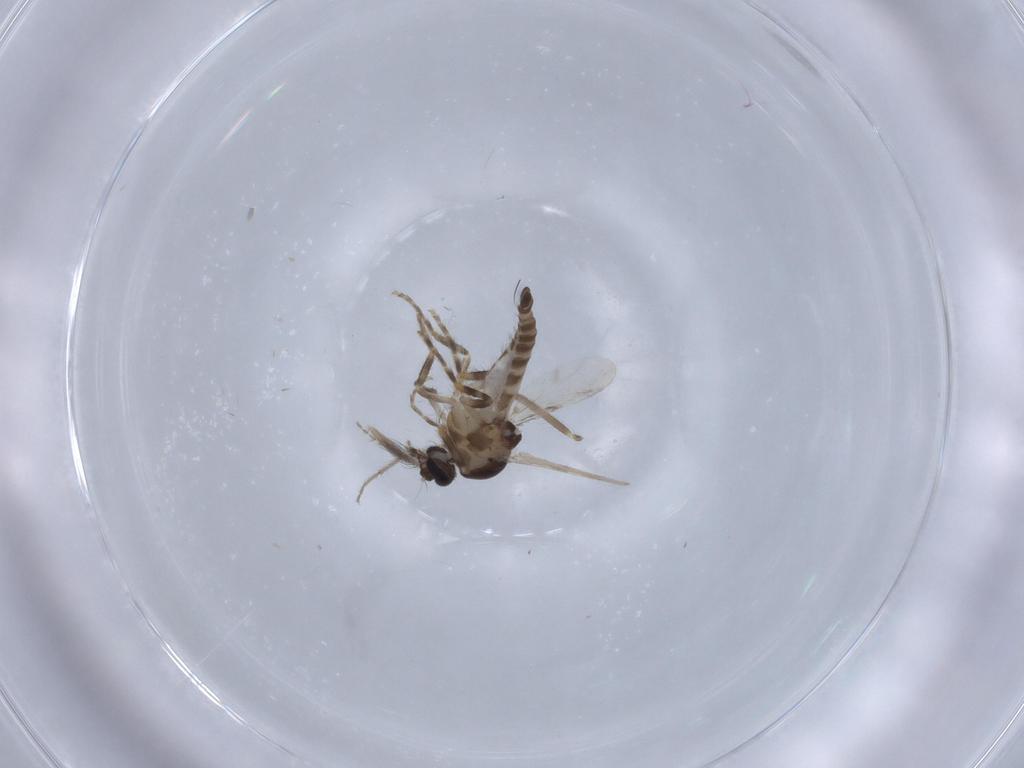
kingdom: Animalia
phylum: Arthropoda
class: Insecta
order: Diptera
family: Ceratopogonidae
